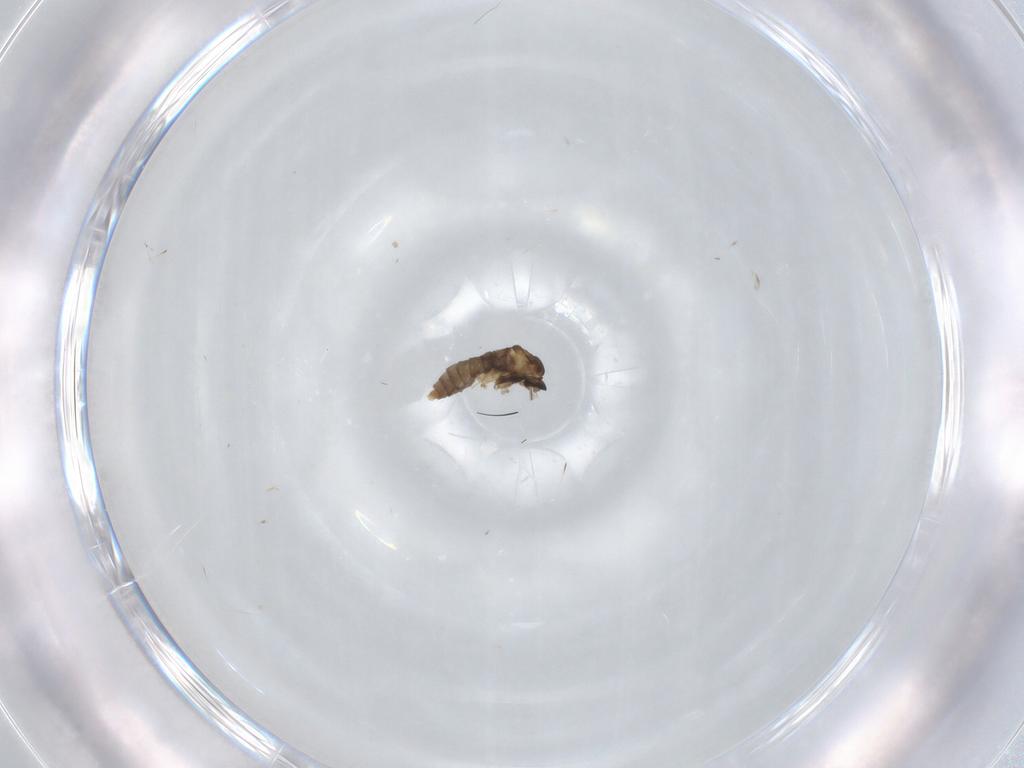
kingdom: Animalia
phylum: Arthropoda
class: Insecta
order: Diptera
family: Cecidomyiidae
